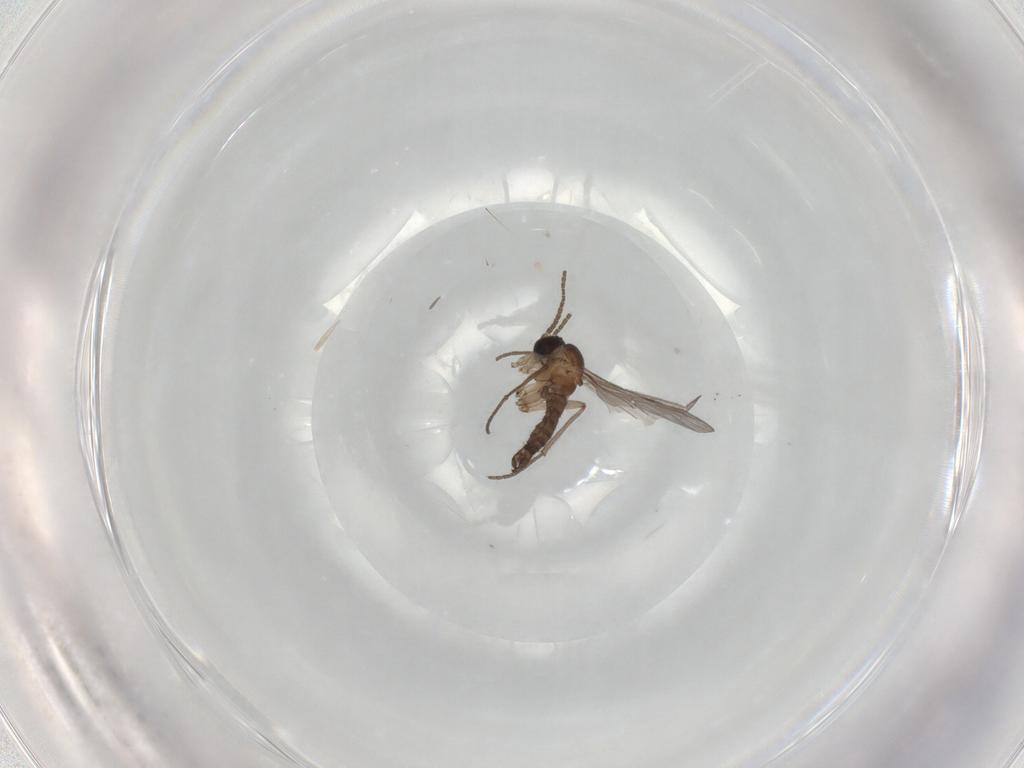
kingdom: Animalia
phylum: Arthropoda
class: Insecta
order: Diptera
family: Sciaridae
